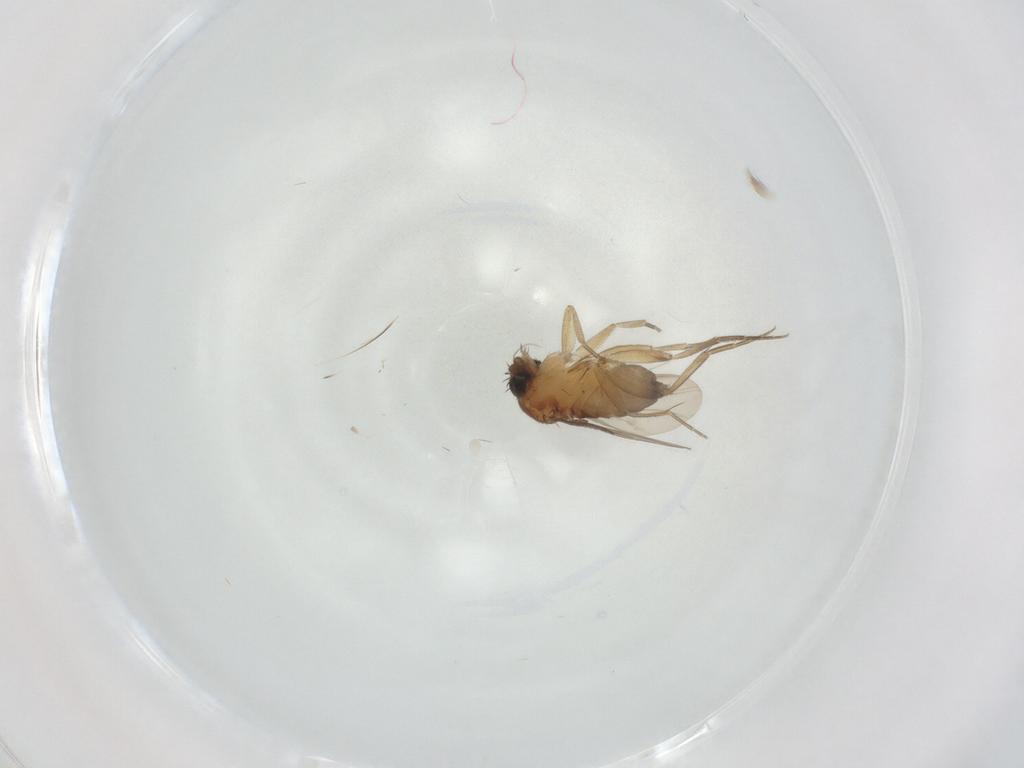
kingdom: Animalia
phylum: Arthropoda
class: Insecta
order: Diptera
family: Phoridae
